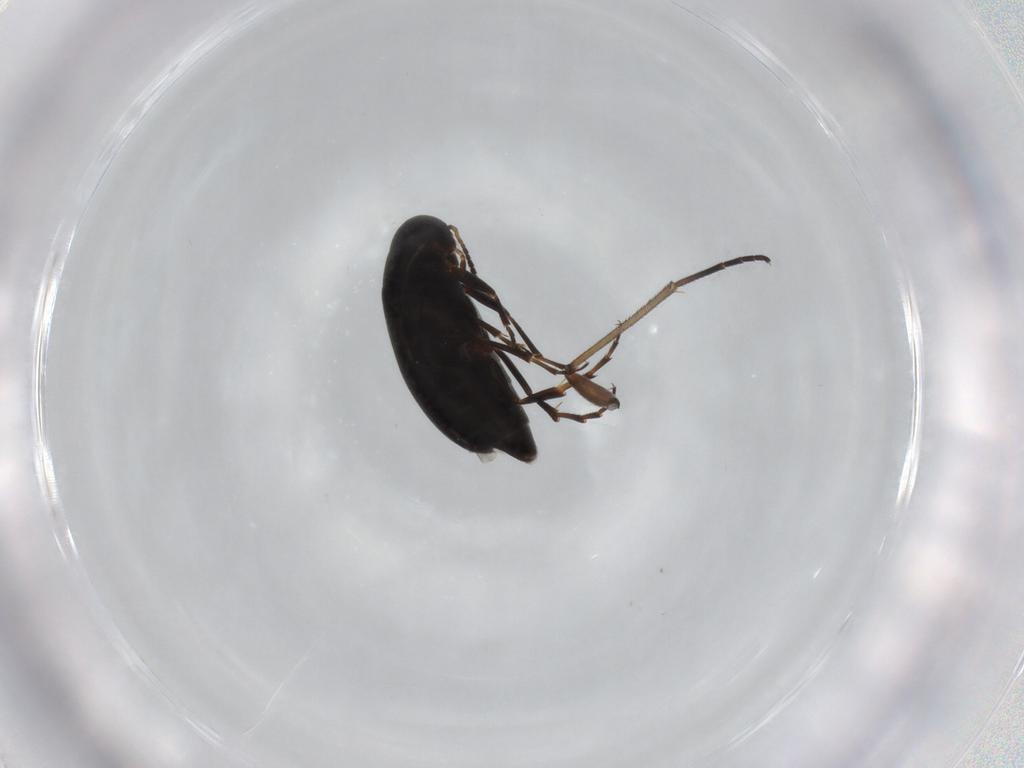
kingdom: Animalia
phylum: Arthropoda
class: Insecta
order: Coleoptera
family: Scraptiidae
